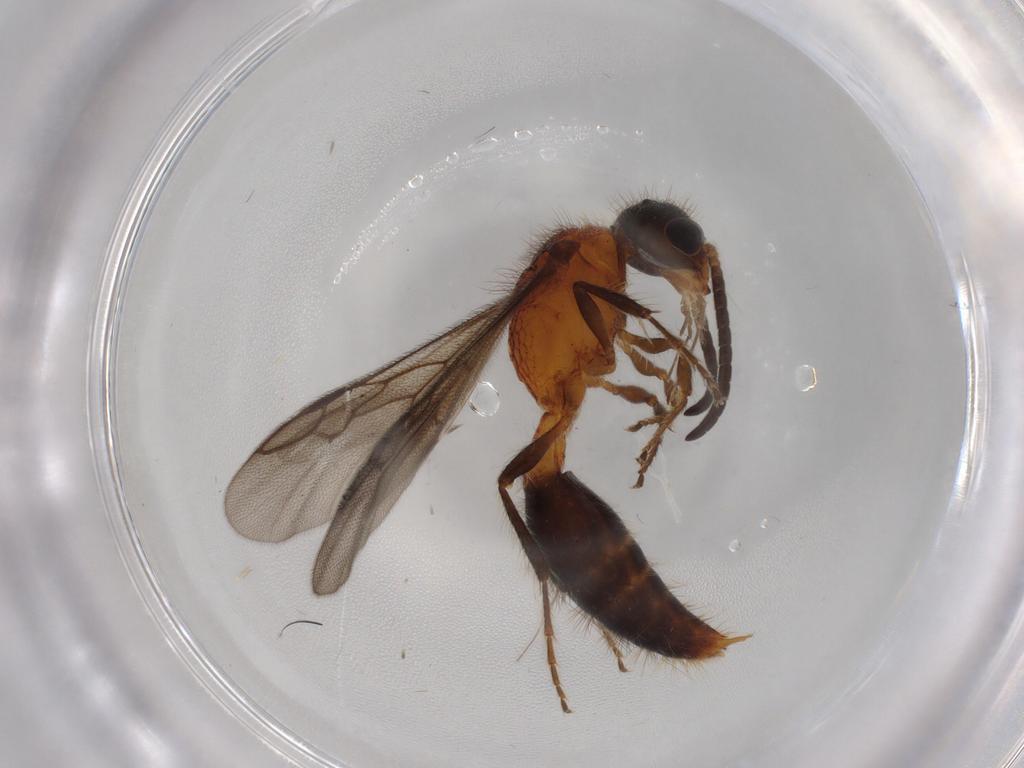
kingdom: Animalia
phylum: Arthropoda
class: Insecta
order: Hymenoptera
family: Mutillidae
